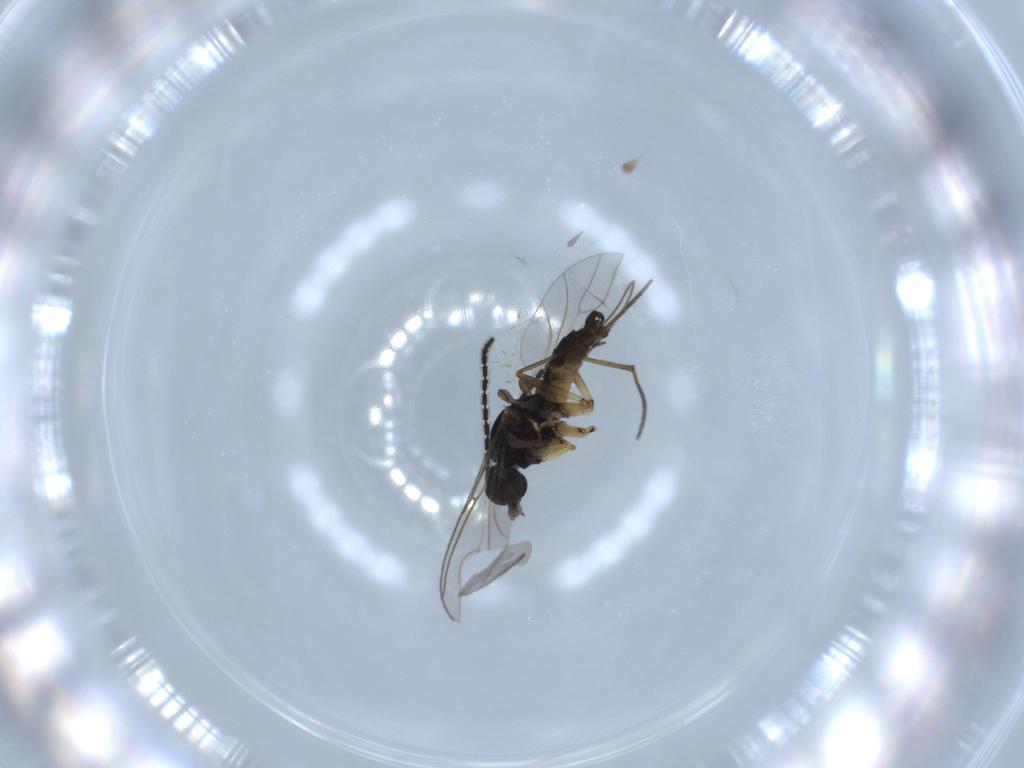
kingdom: Animalia
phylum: Arthropoda
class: Insecta
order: Diptera
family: Sciaridae
